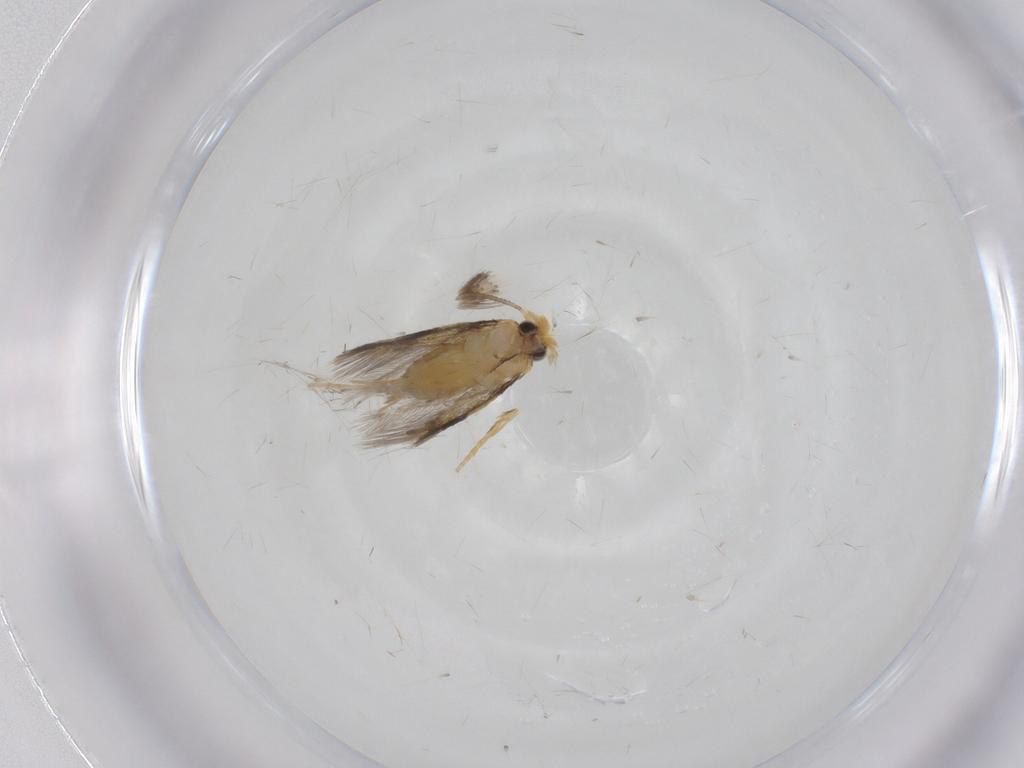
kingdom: Animalia
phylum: Arthropoda
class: Insecta
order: Lepidoptera
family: Nepticulidae
